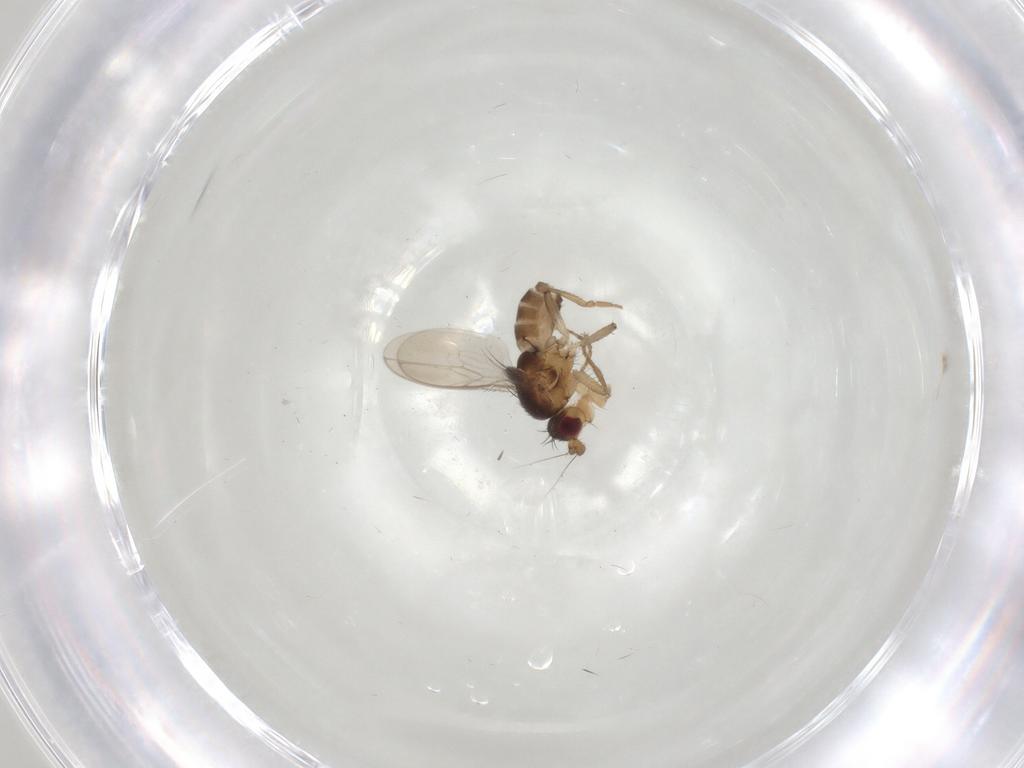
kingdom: Animalia
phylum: Arthropoda
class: Insecta
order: Diptera
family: Sphaeroceridae
